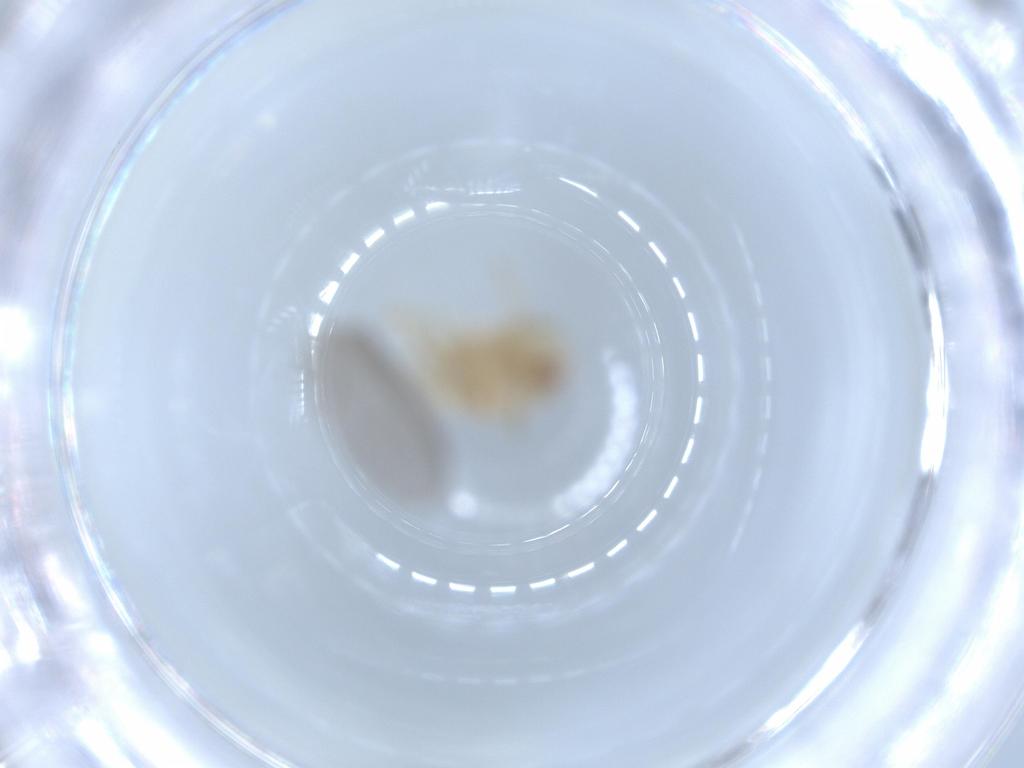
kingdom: Animalia
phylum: Arthropoda
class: Insecta
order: Hemiptera
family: Acanaloniidae
